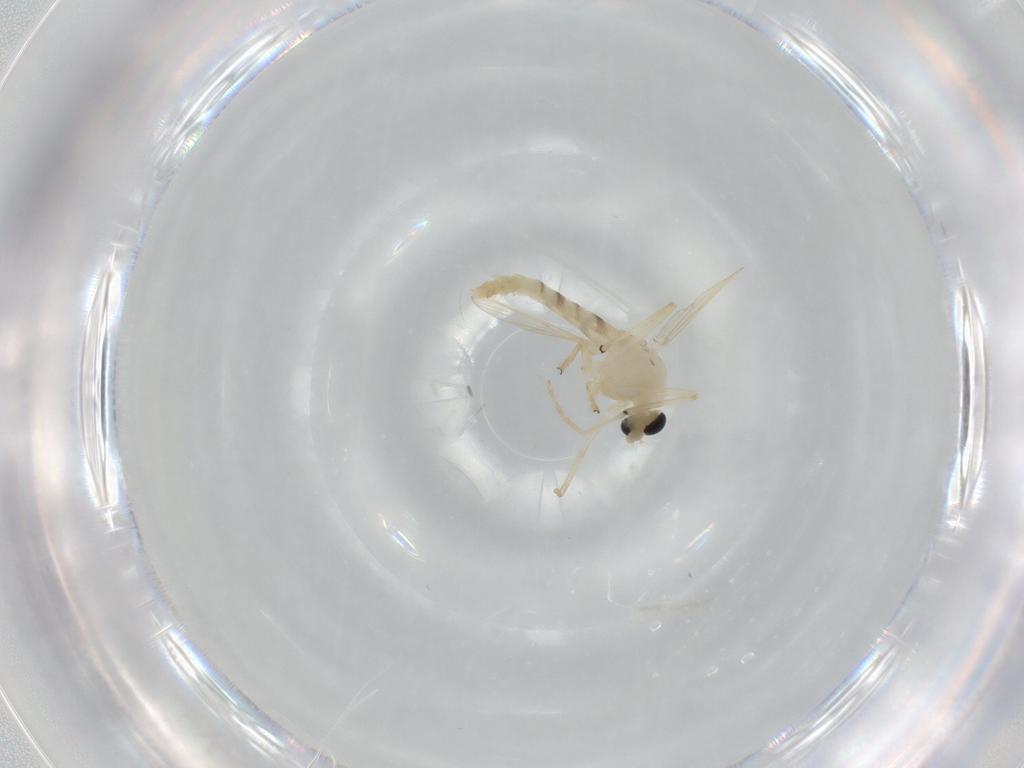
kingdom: Animalia
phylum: Arthropoda
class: Insecta
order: Diptera
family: Chironomidae
